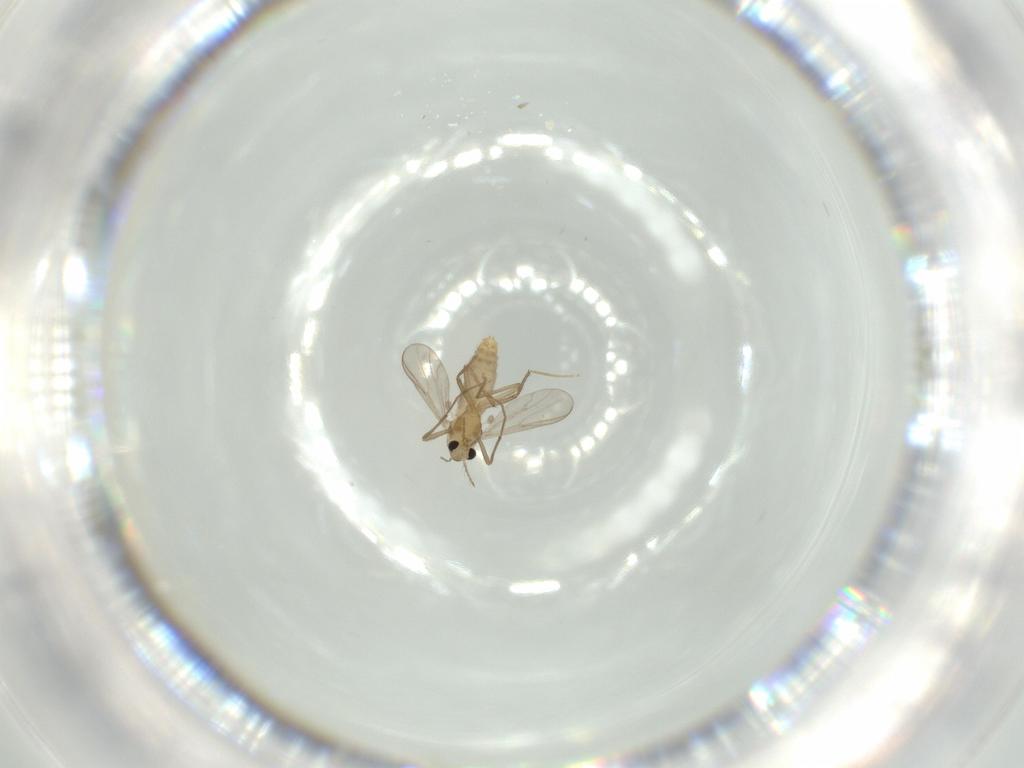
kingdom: Animalia
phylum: Arthropoda
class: Insecta
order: Diptera
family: Chironomidae
